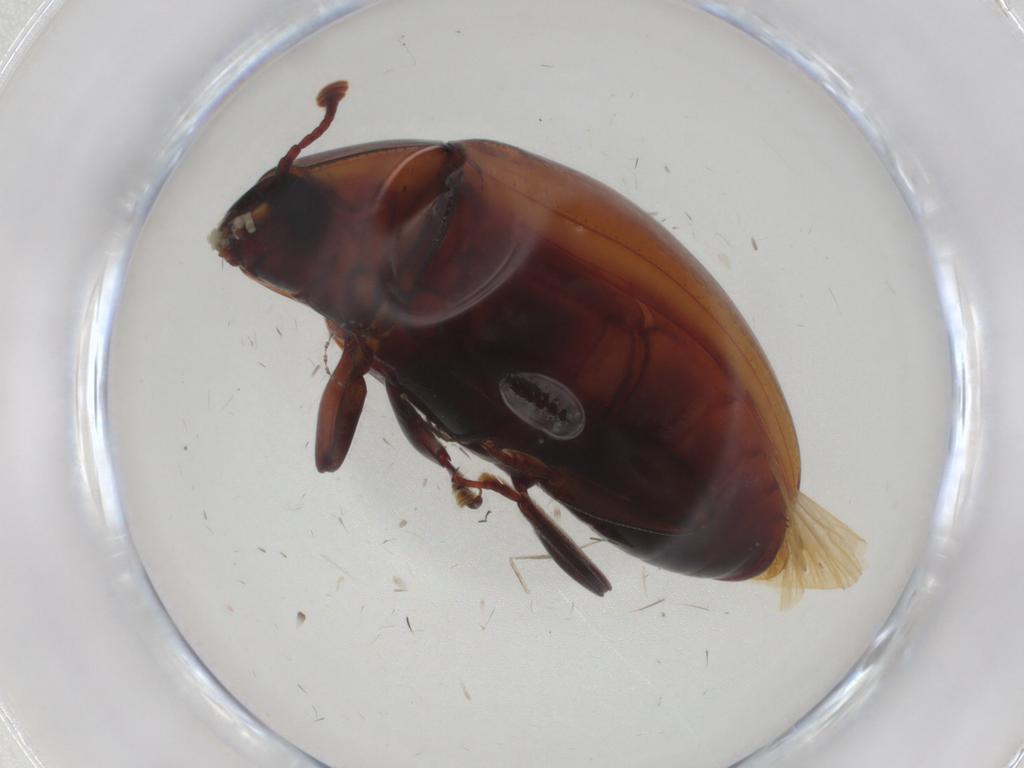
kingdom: Animalia
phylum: Arthropoda
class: Insecta
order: Coleoptera
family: Zopheridae
